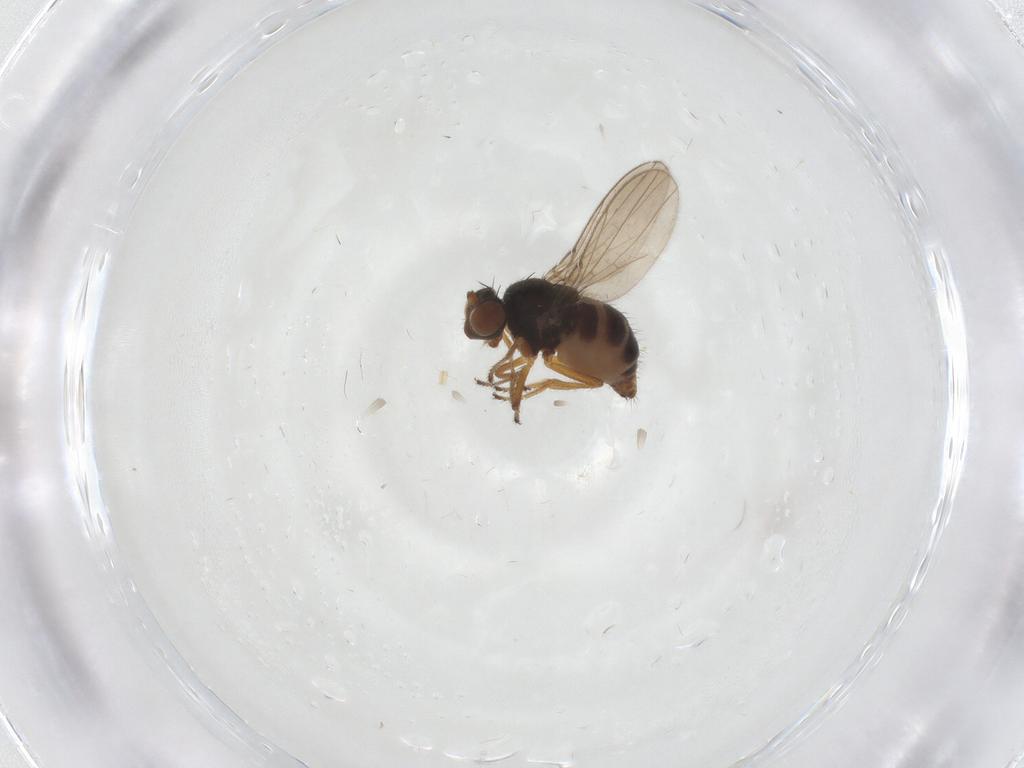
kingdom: Animalia
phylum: Arthropoda
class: Insecta
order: Diptera
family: Ephydridae
